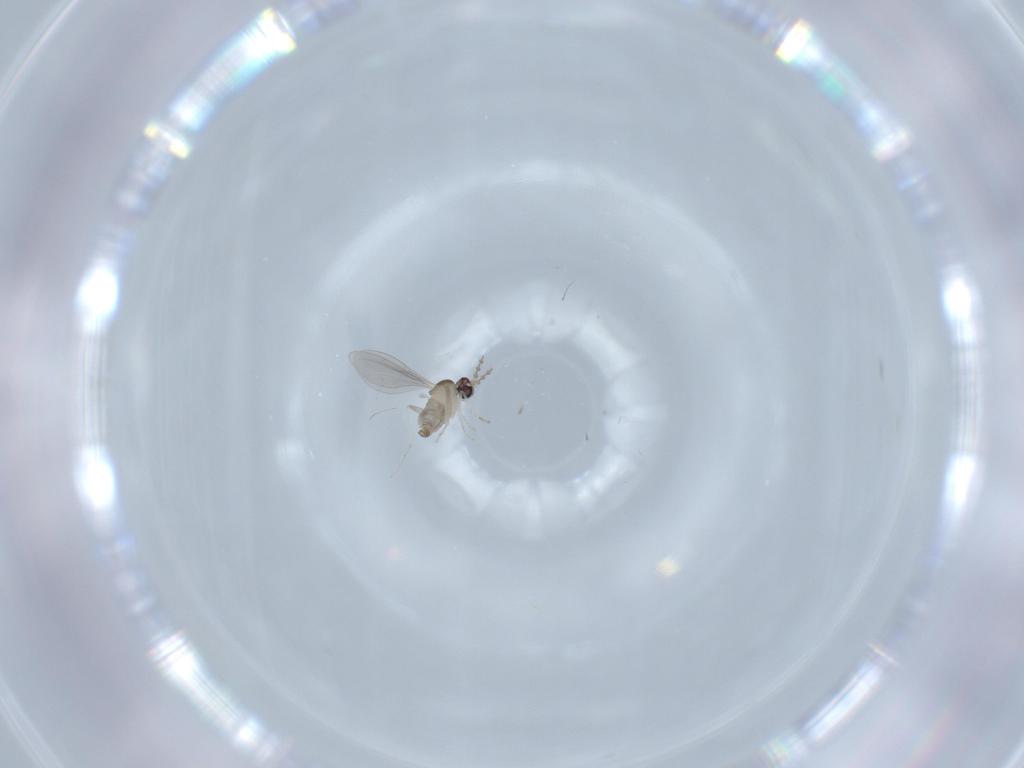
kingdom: Animalia
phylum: Arthropoda
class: Insecta
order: Diptera
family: Cecidomyiidae
